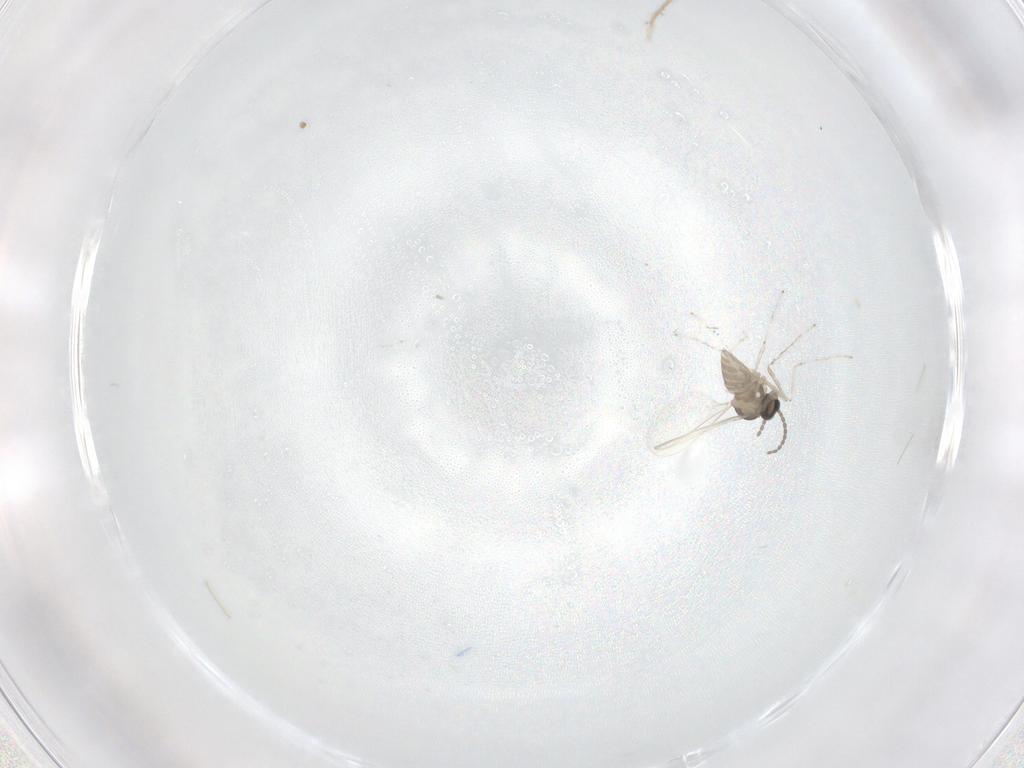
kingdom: Animalia
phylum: Arthropoda
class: Insecta
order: Diptera
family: Cecidomyiidae
